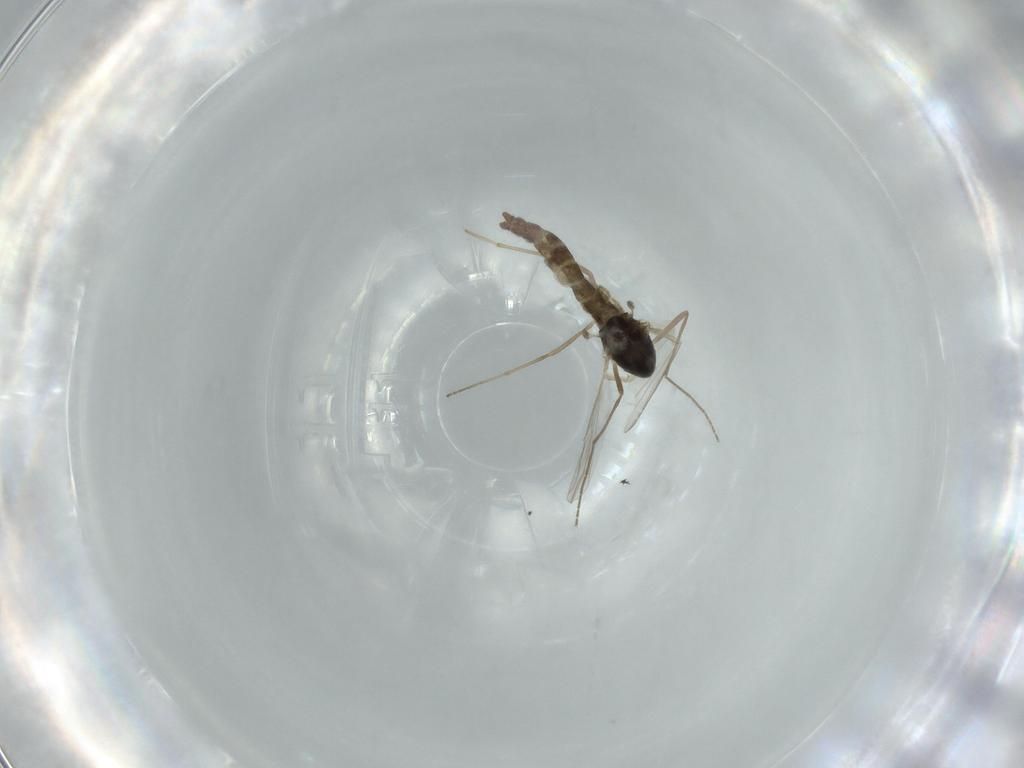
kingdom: Animalia
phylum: Arthropoda
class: Insecta
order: Diptera
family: Chironomidae
